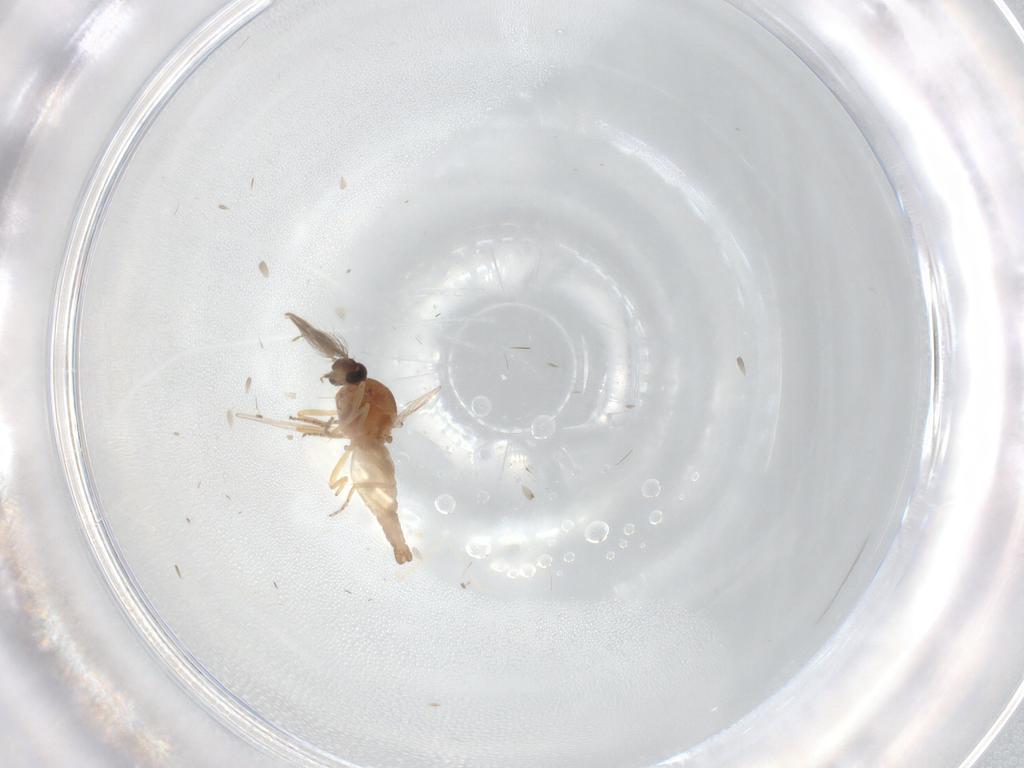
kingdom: Animalia
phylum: Arthropoda
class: Insecta
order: Diptera
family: Ceratopogonidae
